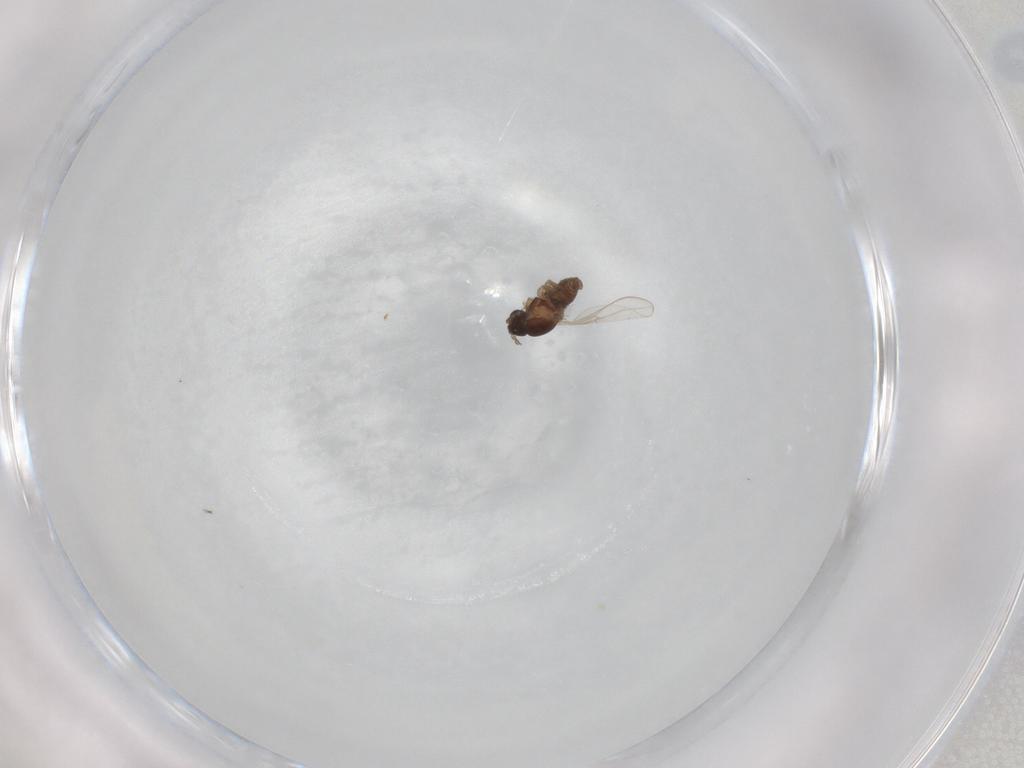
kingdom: Animalia
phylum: Arthropoda
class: Insecta
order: Diptera
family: Cecidomyiidae
